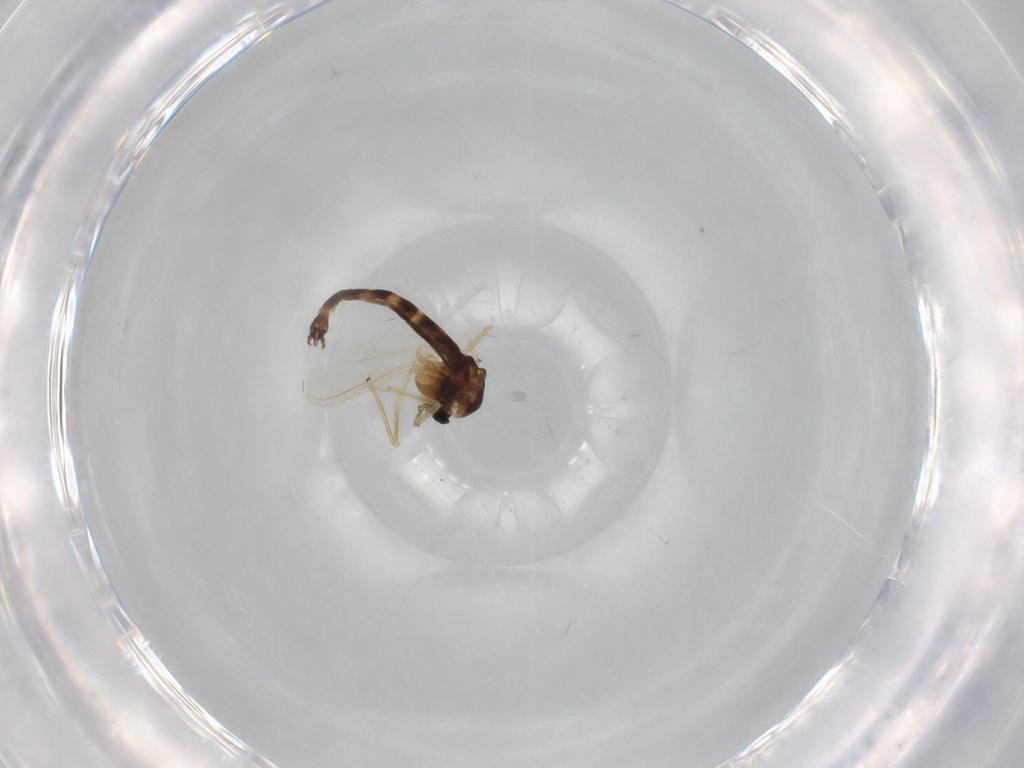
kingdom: Animalia
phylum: Arthropoda
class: Insecta
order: Diptera
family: Chironomidae
